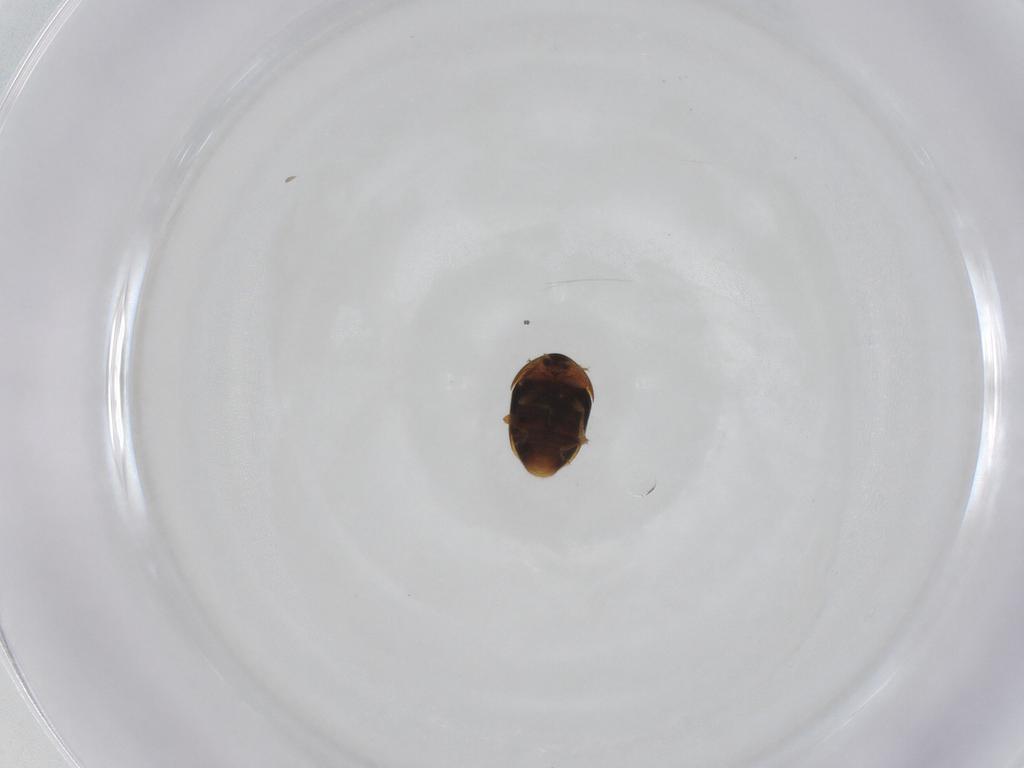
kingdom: Animalia
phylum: Arthropoda
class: Insecta
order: Coleoptera
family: Corylophidae
